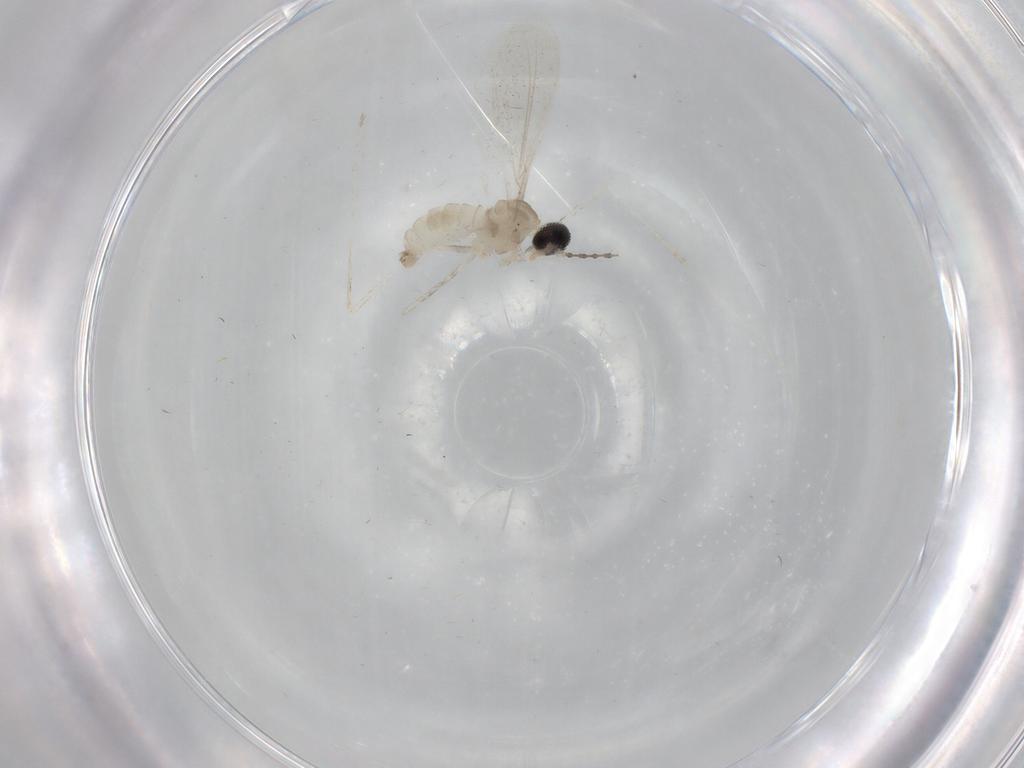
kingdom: Animalia
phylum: Arthropoda
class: Insecta
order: Diptera
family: Cecidomyiidae
